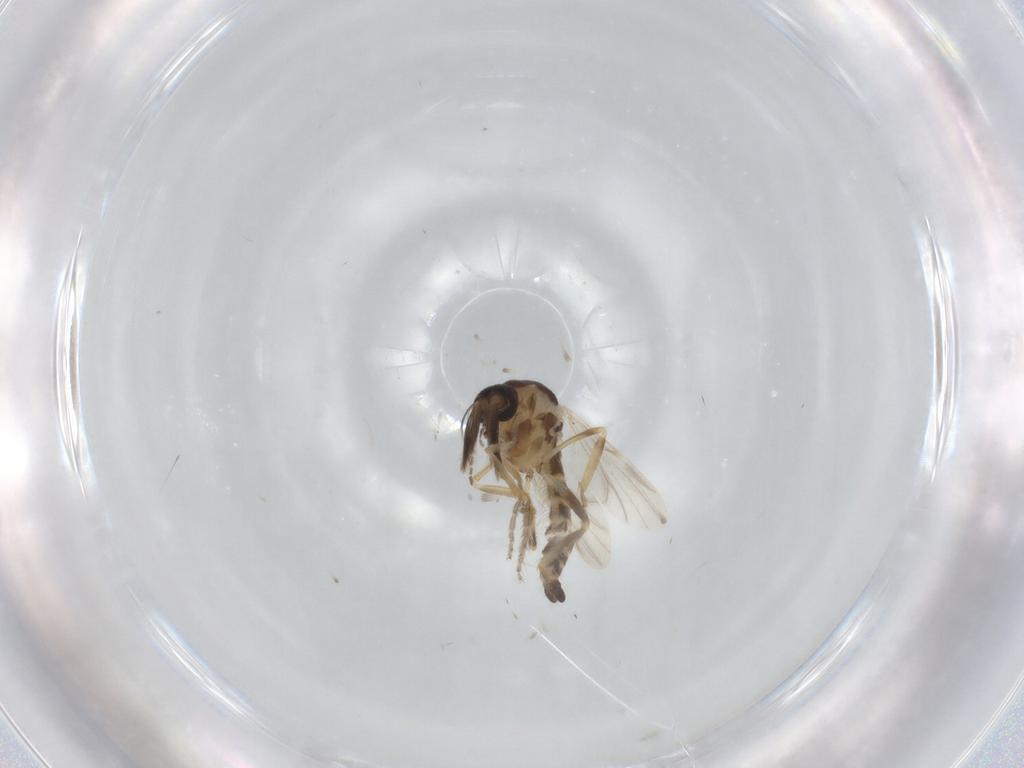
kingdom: Animalia
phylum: Arthropoda
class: Insecta
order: Diptera
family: Ceratopogonidae
